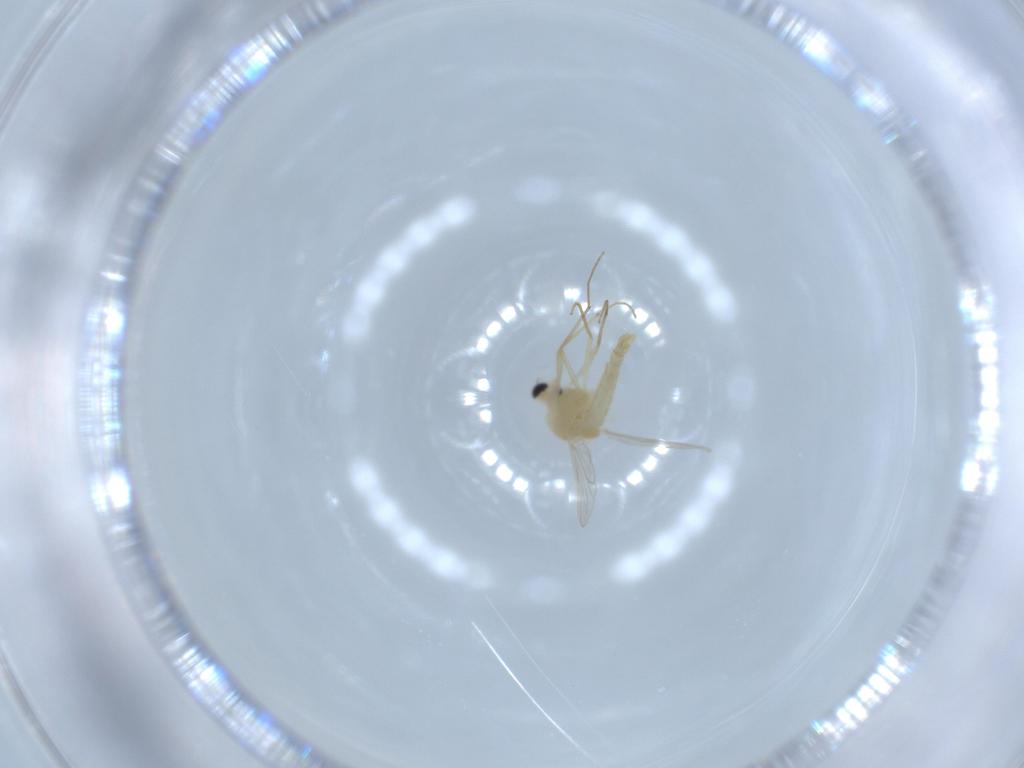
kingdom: Animalia
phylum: Arthropoda
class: Insecta
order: Diptera
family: Chironomidae
